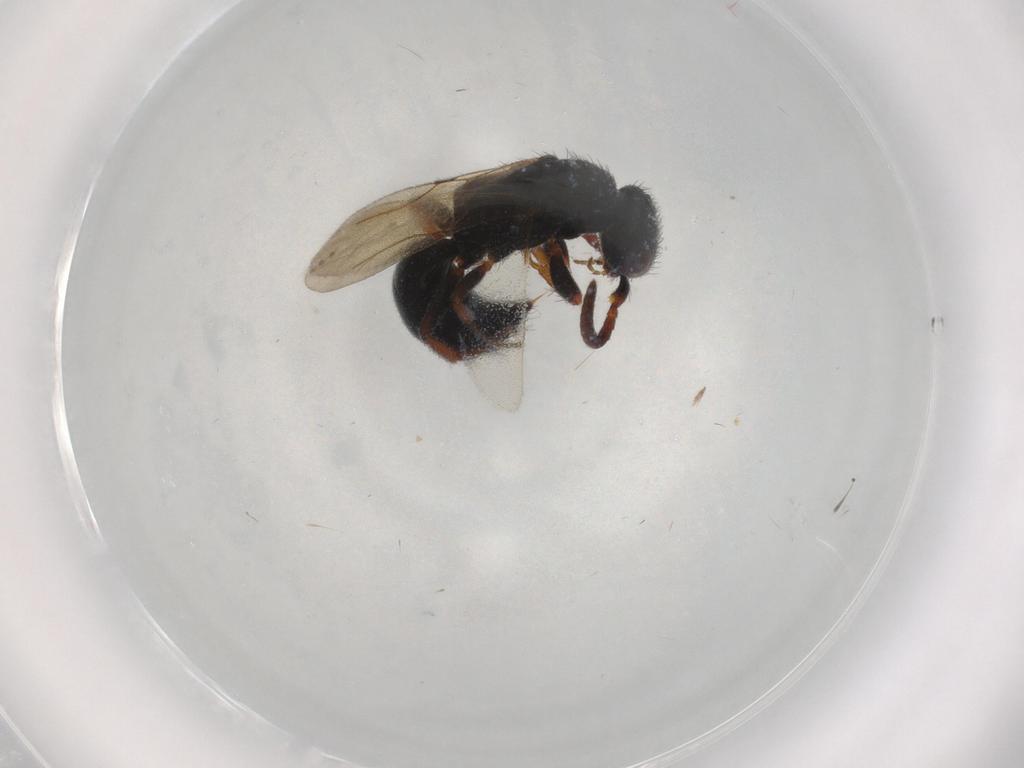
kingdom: Animalia
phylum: Arthropoda
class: Insecta
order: Hymenoptera
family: Bethylidae
